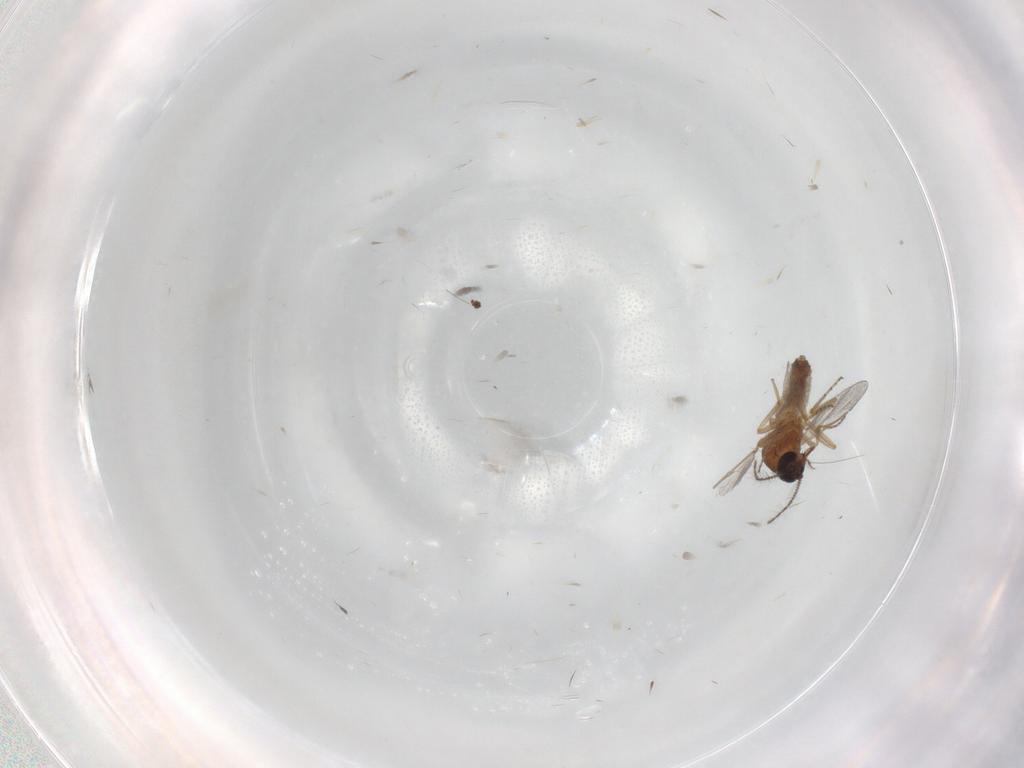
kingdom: Animalia
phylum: Arthropoda
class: Insecta
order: Diptera
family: Ceratopogonidae
